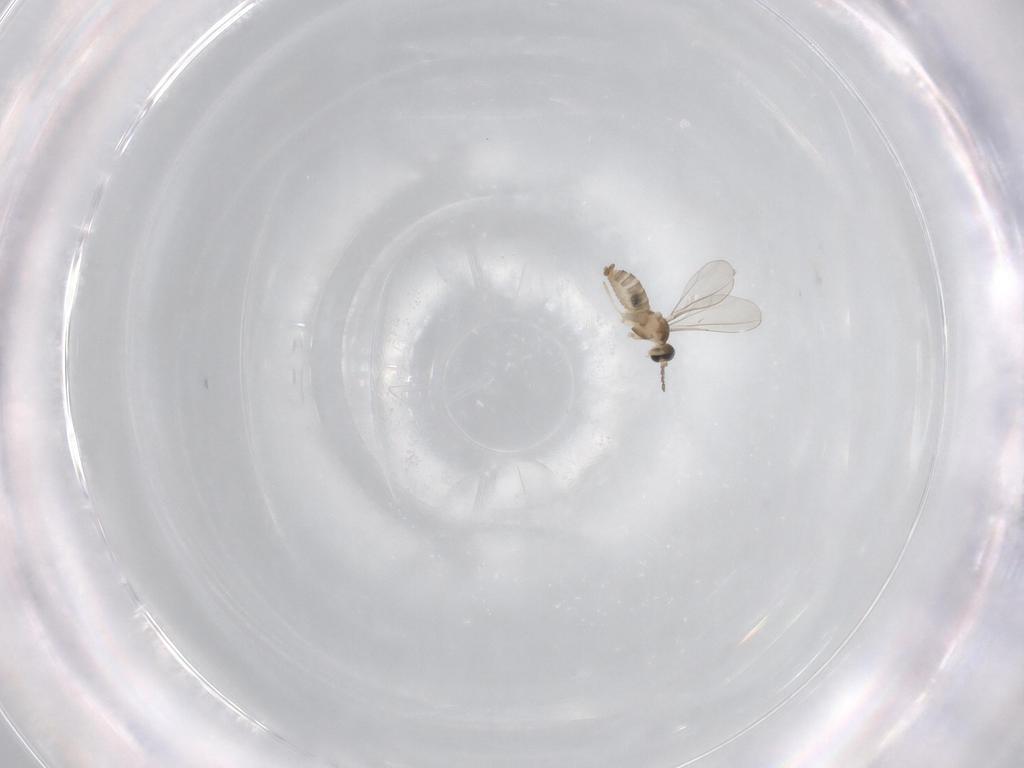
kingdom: Animalia
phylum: Arthropoda
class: Insecta
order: Diptera
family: Cecidomyiidae
